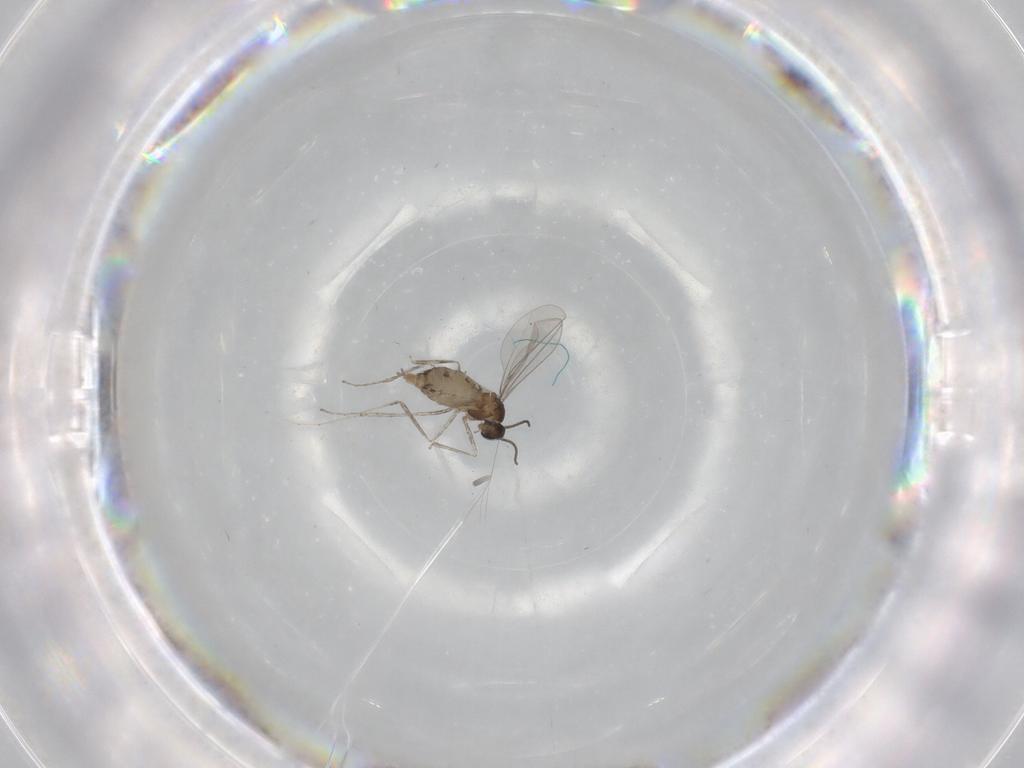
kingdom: Animalia
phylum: Arthropoda
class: Insecta
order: Diptera
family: Cecidomyiidae
